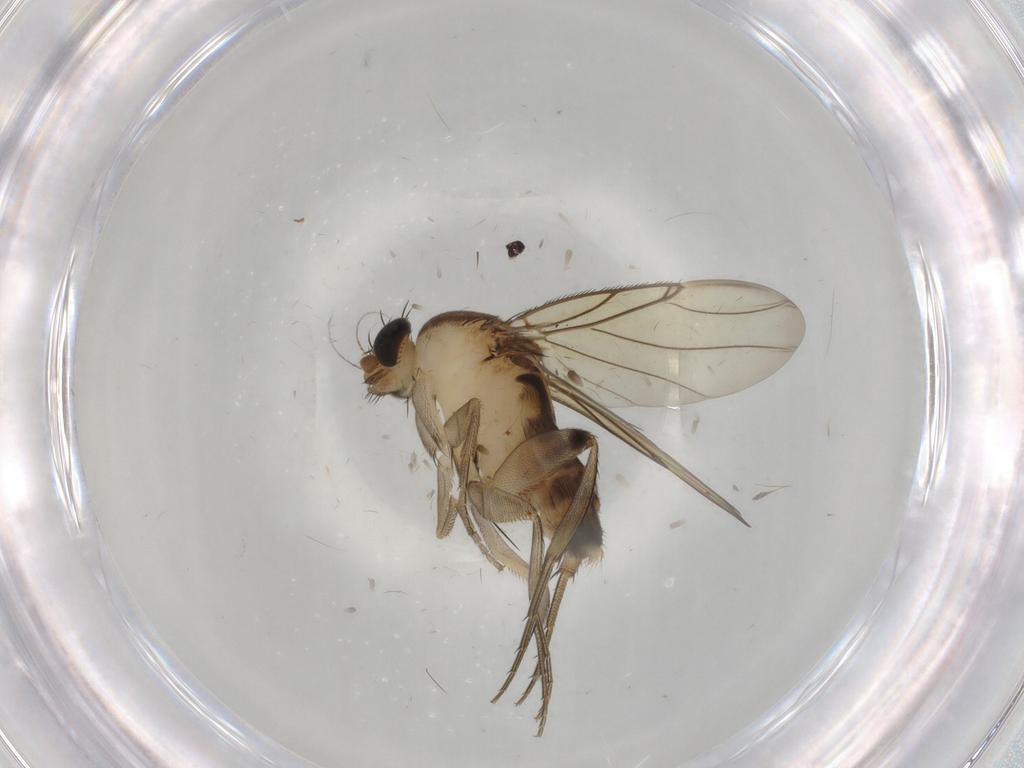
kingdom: Animalia
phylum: Arthropoda
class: Insecta
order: Diptera
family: Phoridae
